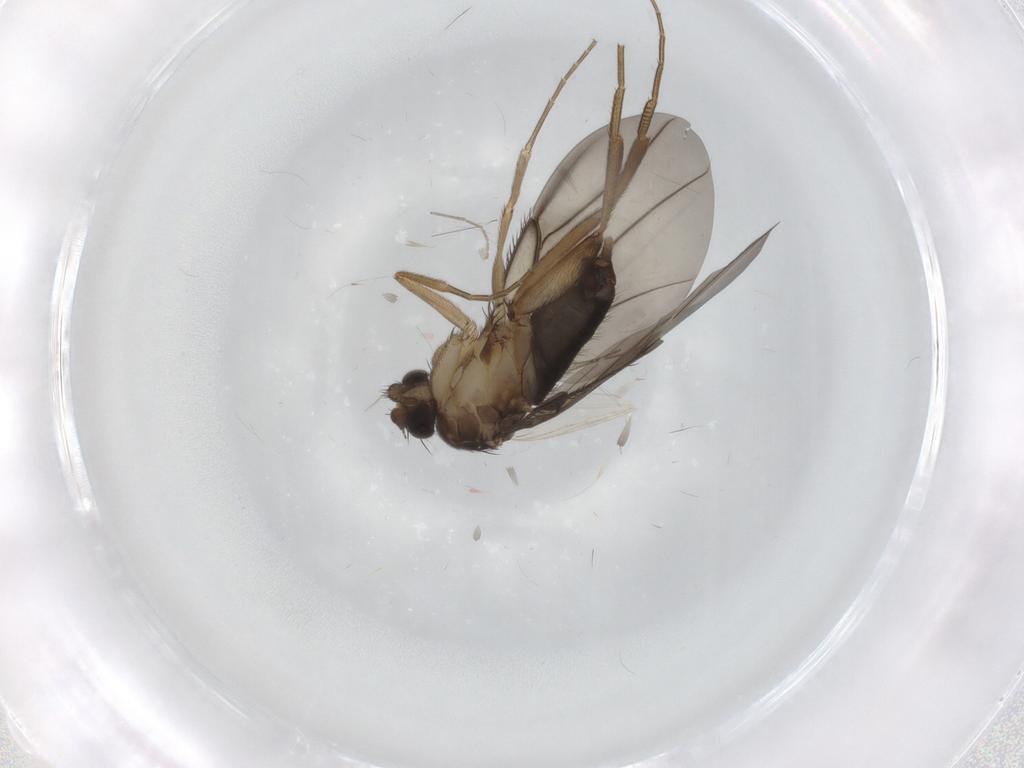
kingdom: Animalia
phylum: Arthropoda
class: Insecta
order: Diptera
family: Phoridae
